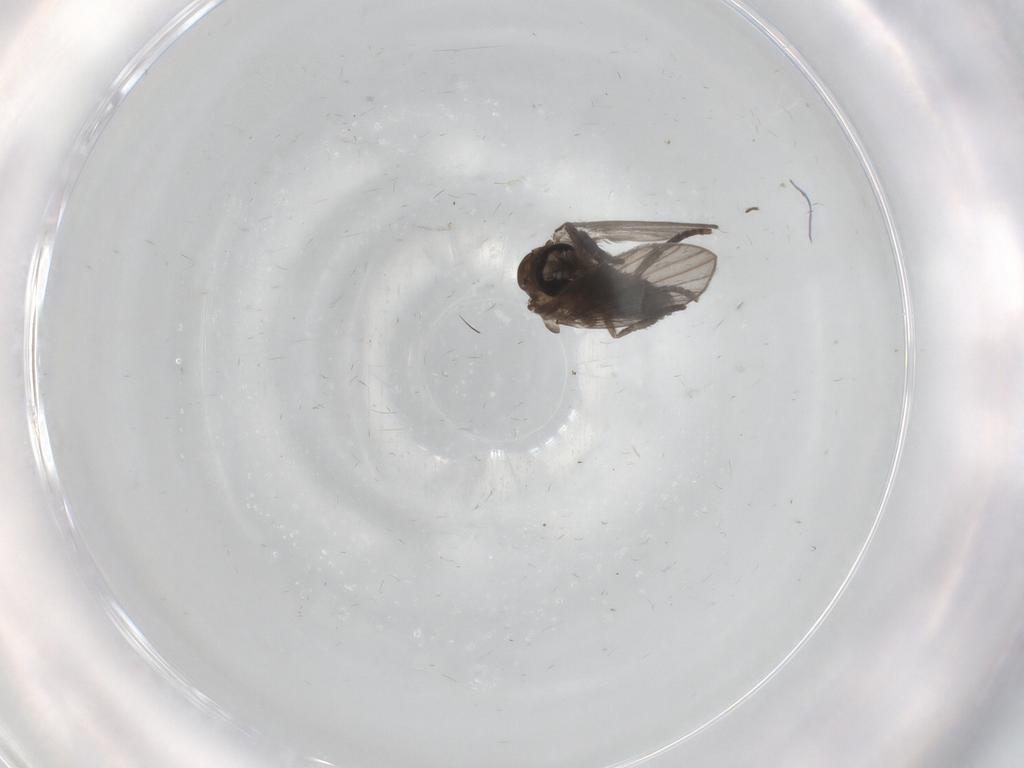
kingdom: Animalia
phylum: Arthropoda
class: Insecta
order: Diptera
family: Psychodidae
